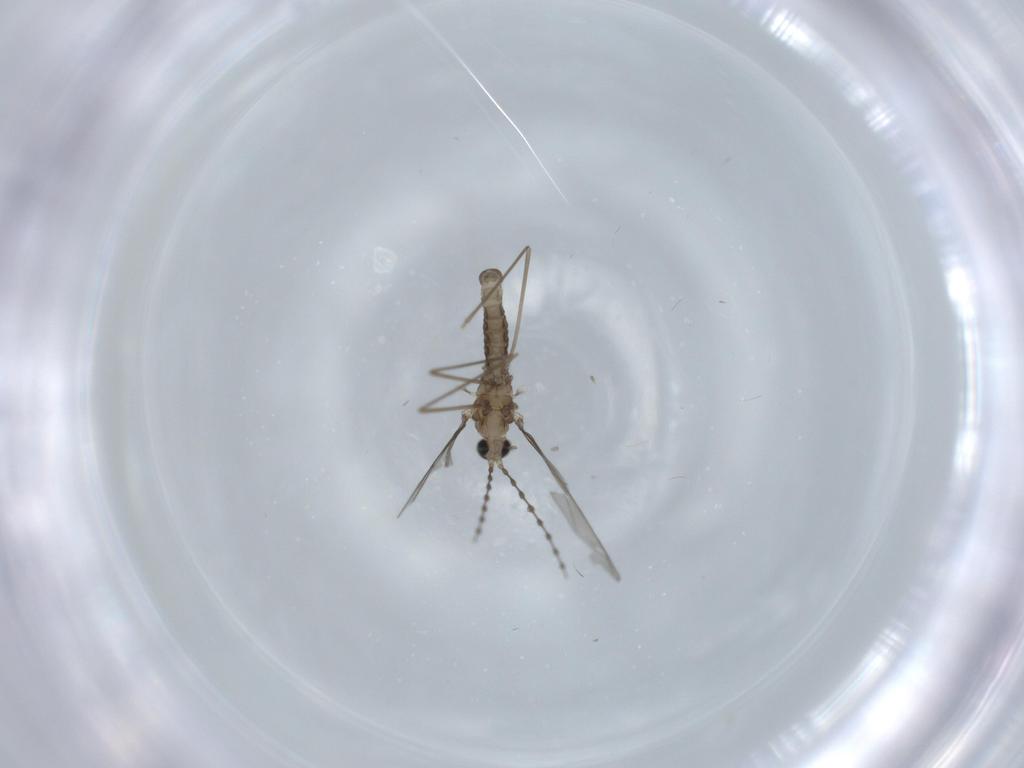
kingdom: Animalia
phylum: Arthropoda
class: Insecta
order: Diptera
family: Cecidomyiidae
